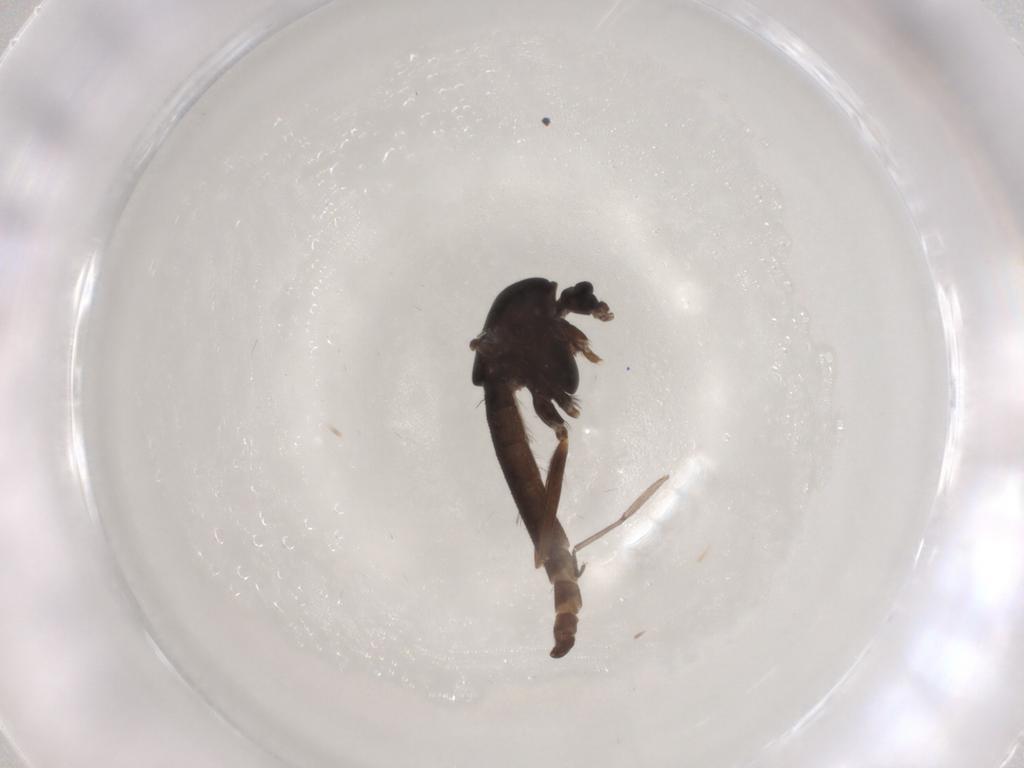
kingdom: Animalia
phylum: Arthropoda
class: Insecta
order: Diptera
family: Chironomidae
